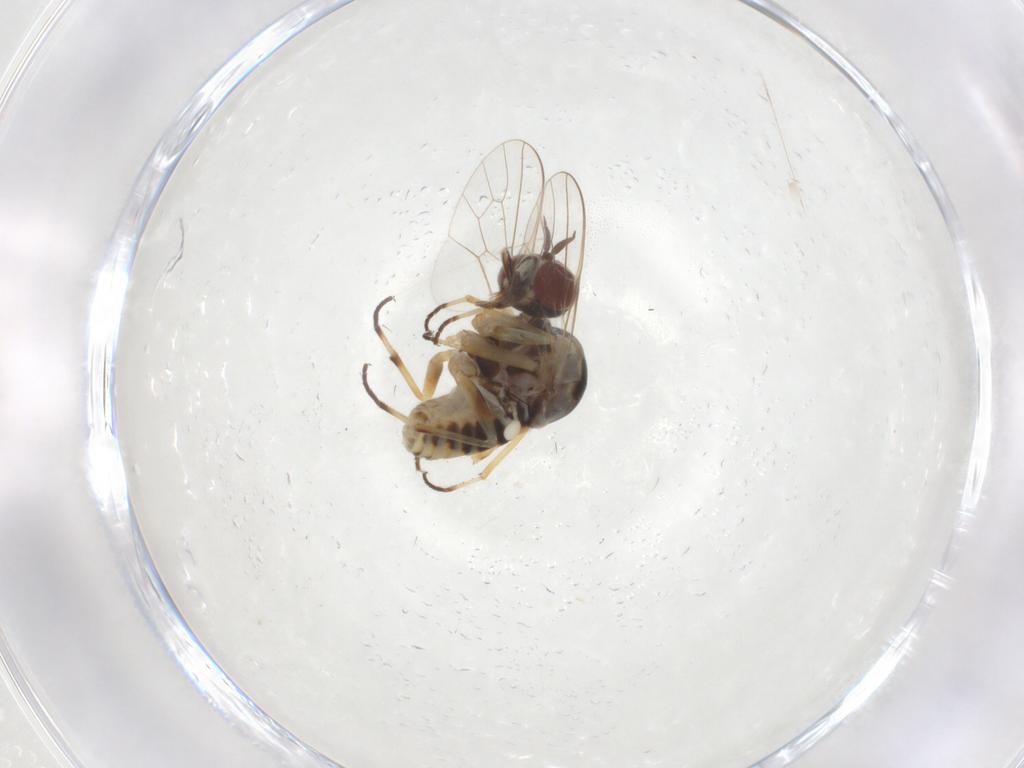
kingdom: Animalia
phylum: Arthropoda
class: Insecta
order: Diptera
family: Bombyliidae
